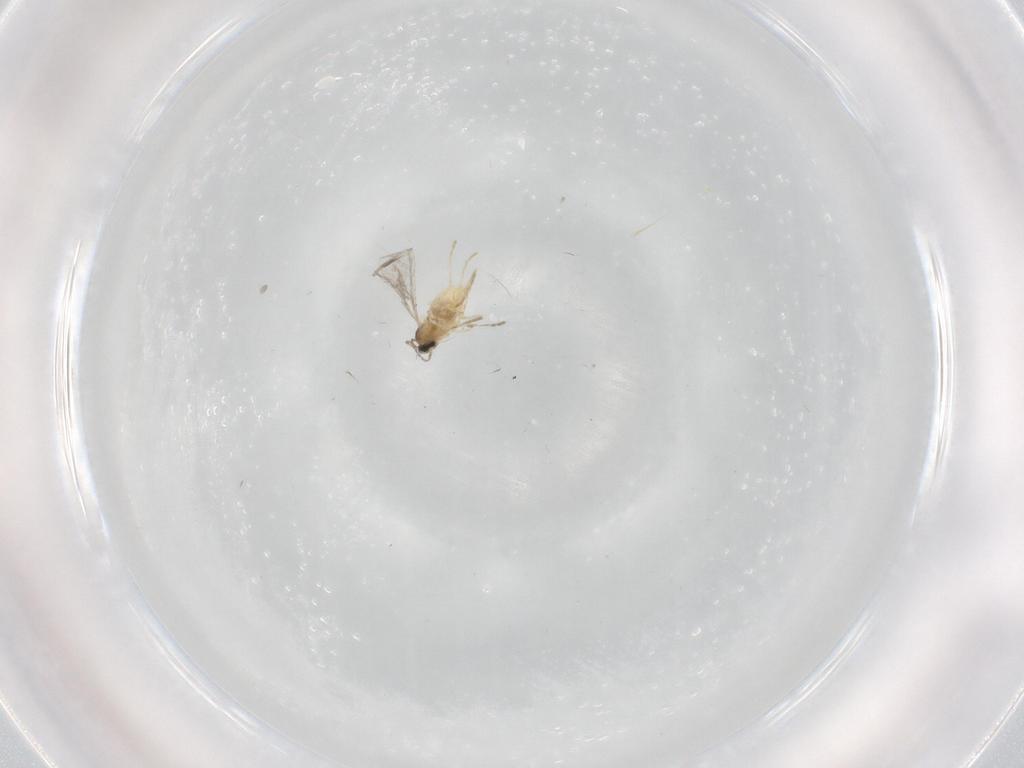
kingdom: Animalia
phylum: Arthropoda
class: Insecta
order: Diptera
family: Cecidomyiidae
